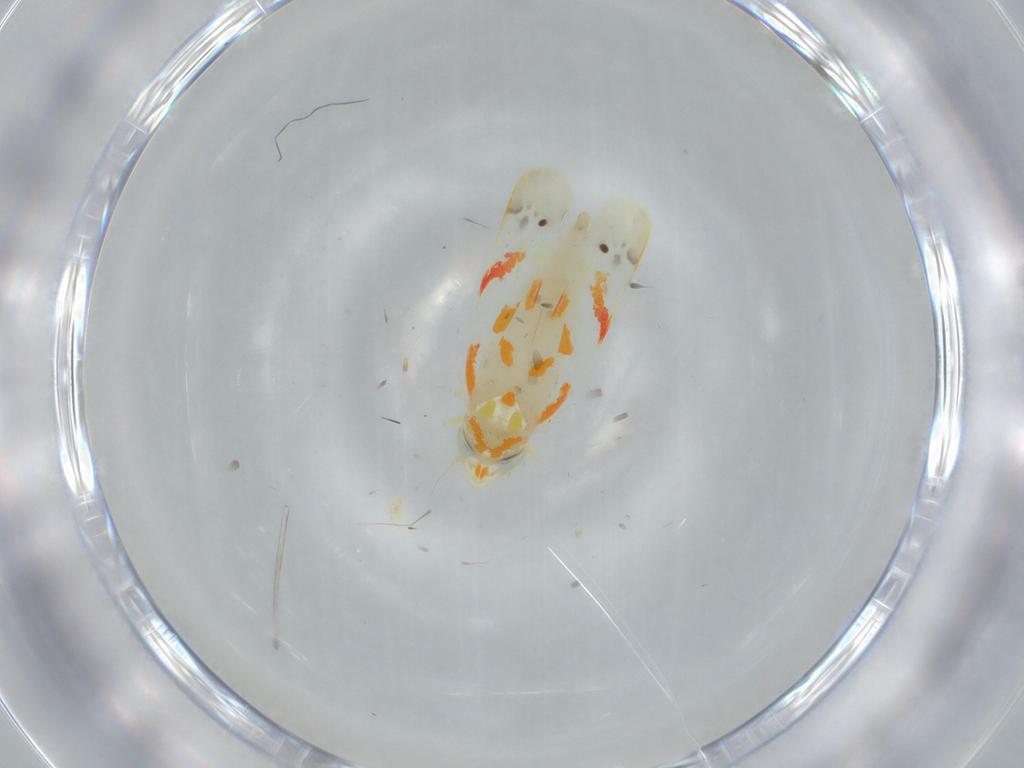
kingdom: Animalia
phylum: Arthropoda
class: Insecta
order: Hemiptera
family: Cicadellidae
